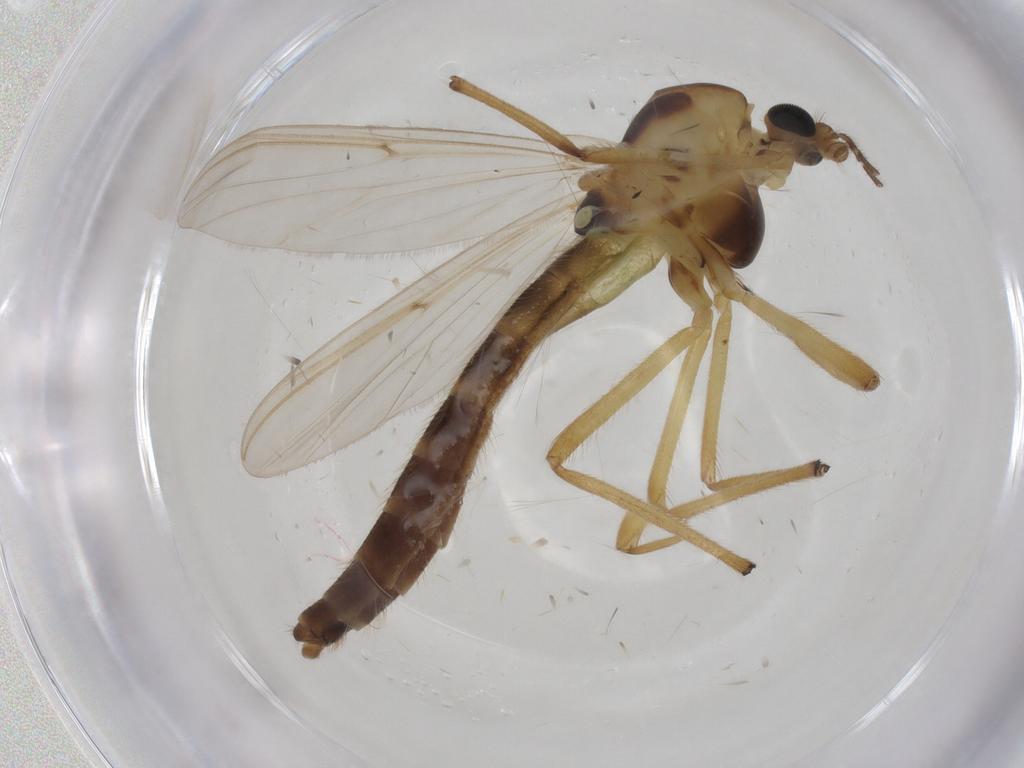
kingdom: Animalia
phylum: Arthropoda
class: Insecta
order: Diptera
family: Cecidomyiidae
